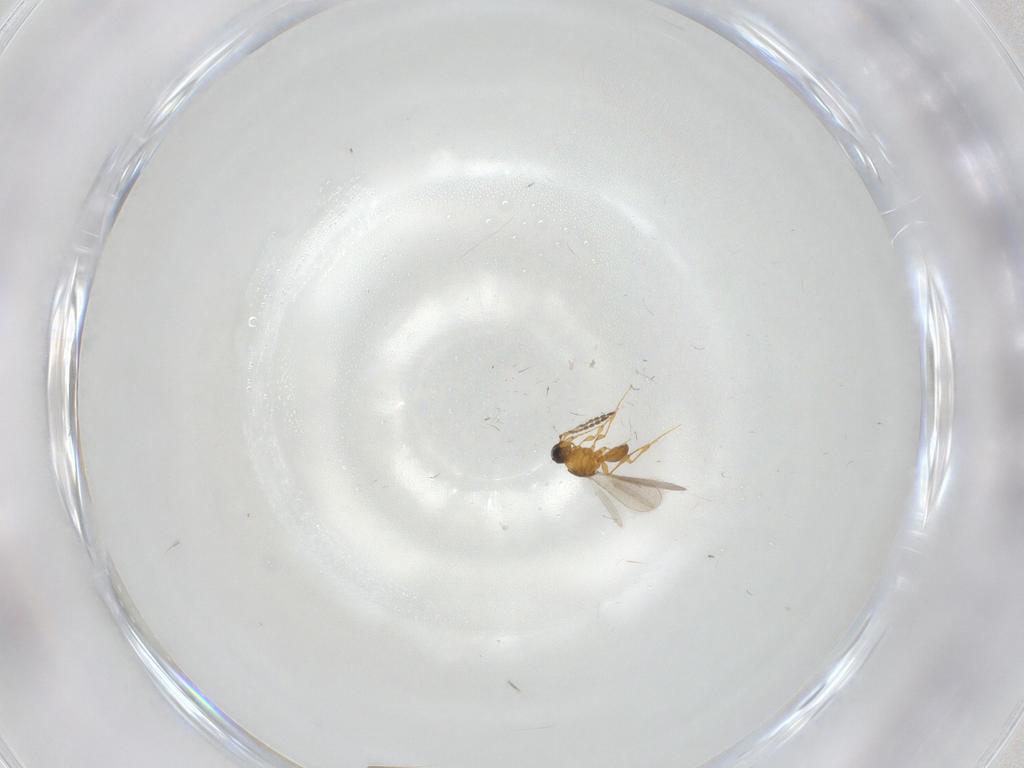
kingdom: Animalia
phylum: Arthropoda
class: Insecta
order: Hymenoptera
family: Platygastridae
